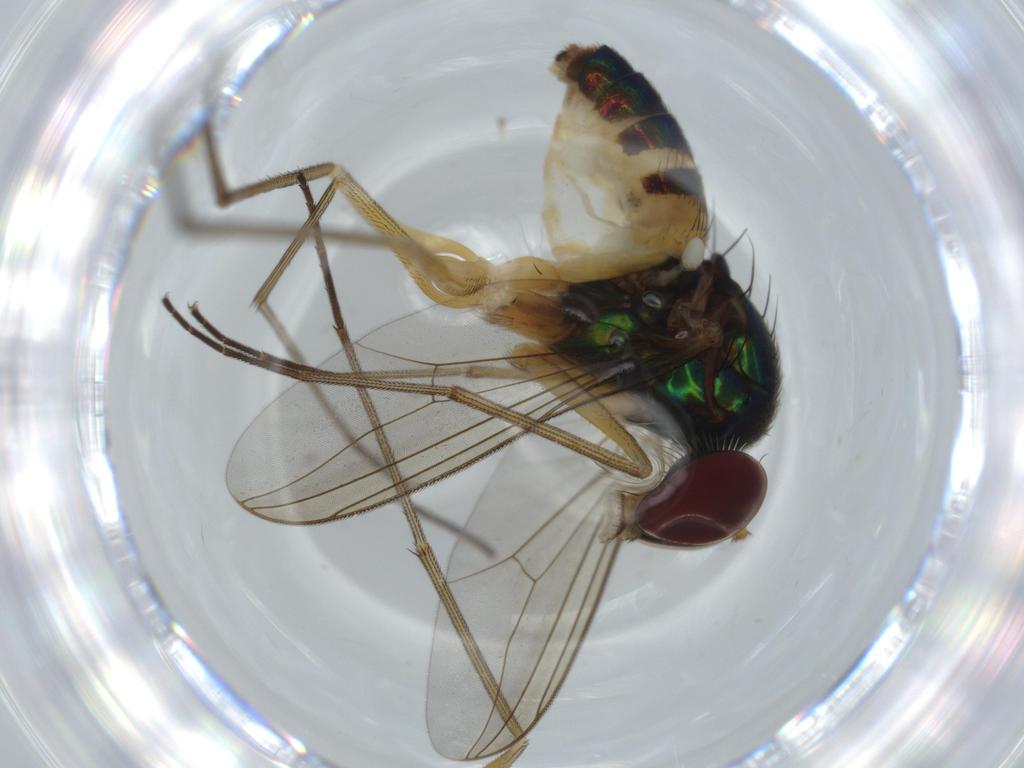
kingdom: Animalia
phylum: Arthropoda
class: Insecta
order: Diptera
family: Dolichopodidae
